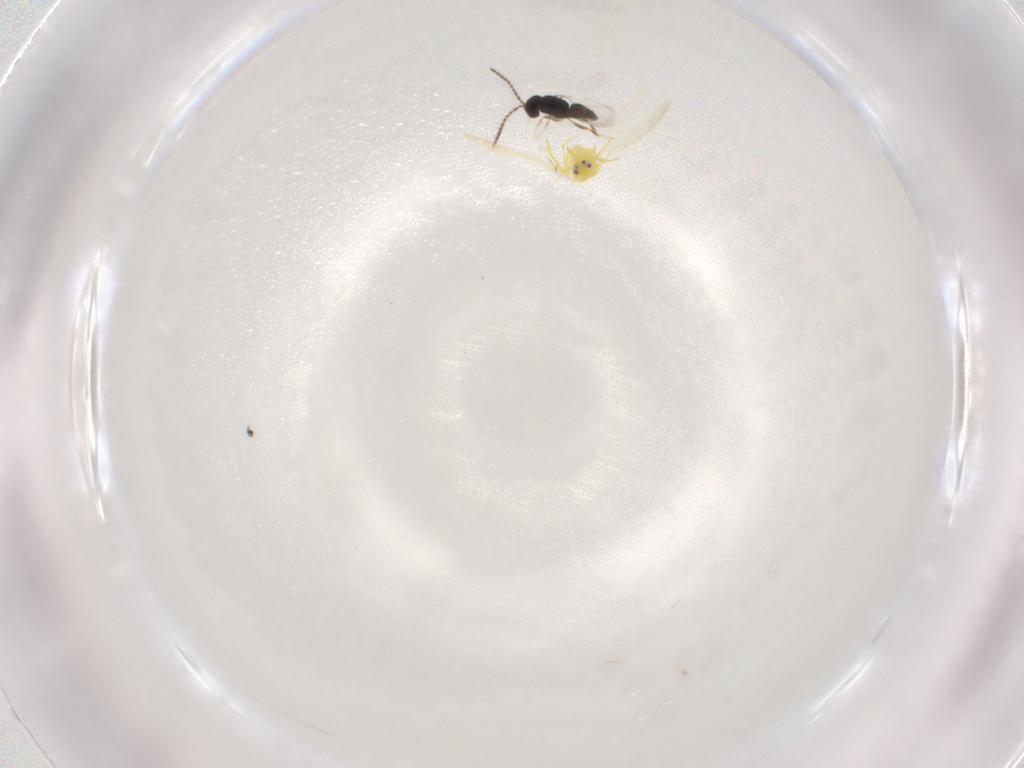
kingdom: Animalia
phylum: Arthropoda
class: Insecta
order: Hemiptera
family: Aleyrodidae
